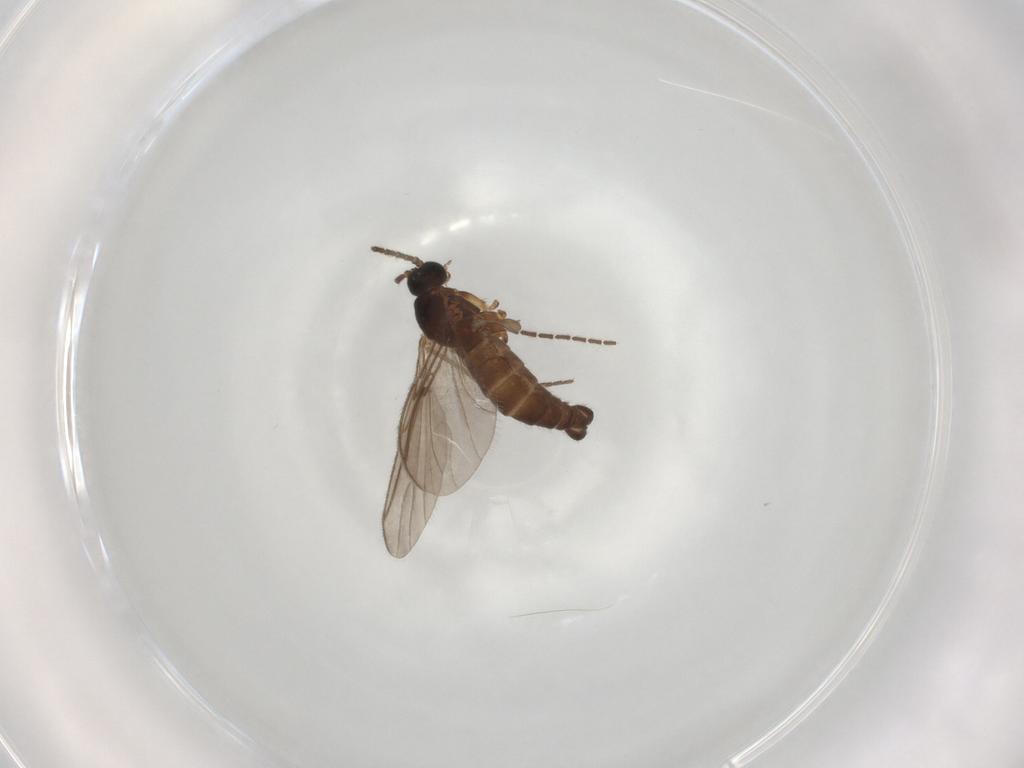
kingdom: Animalia
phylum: Arthropoda
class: Insecta
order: Diptera
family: Sciaridae
